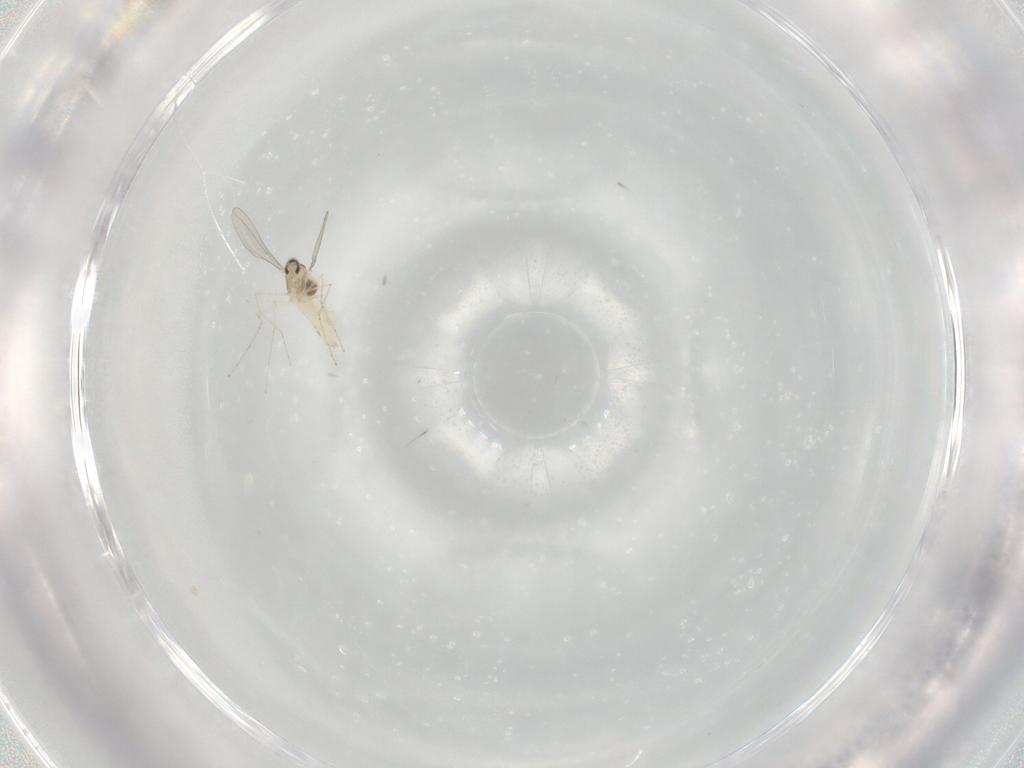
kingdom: Animalia
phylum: Arthropoda
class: Insecta
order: Diptera
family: Cecidomyiidae
